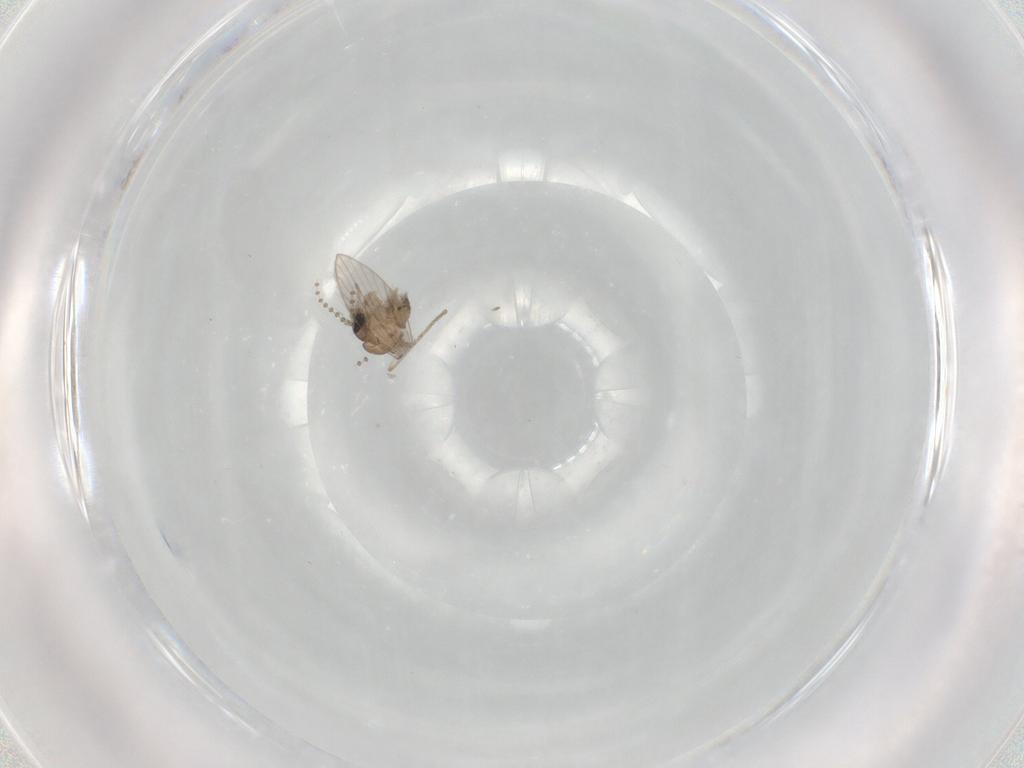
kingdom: Animalia
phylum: Arthropoda
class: Insecta
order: Diptera
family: Psychodidae
